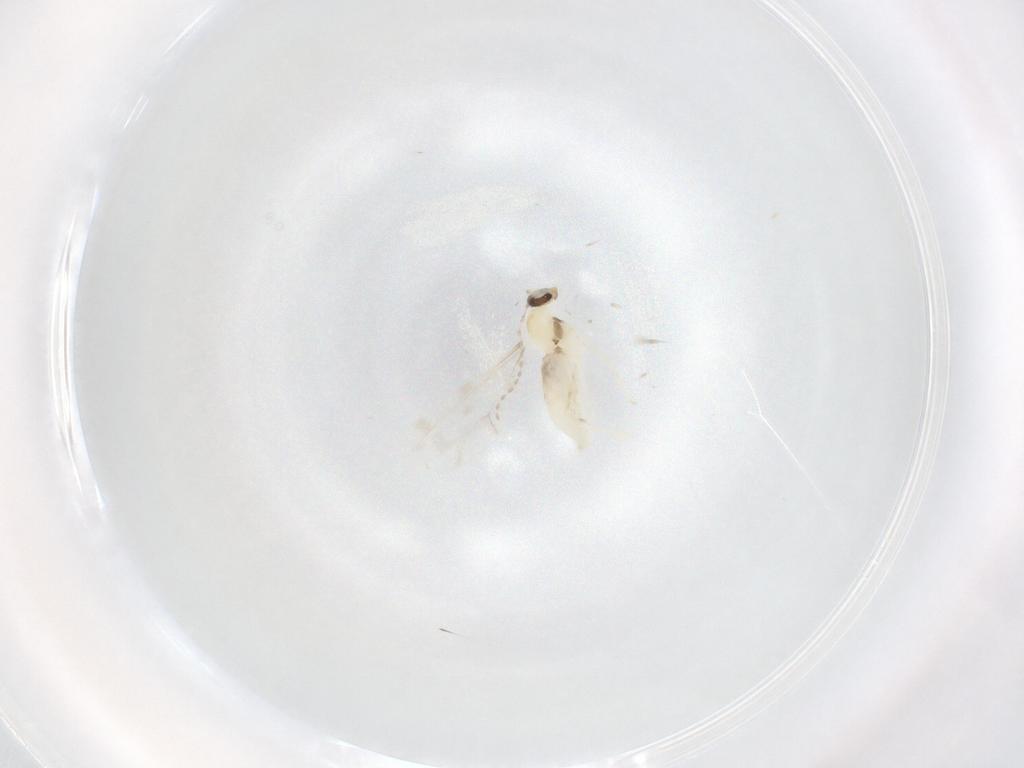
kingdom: Animalia
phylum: Arthropoda
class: Insecta
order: Diptera
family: Cecidomyiidae
